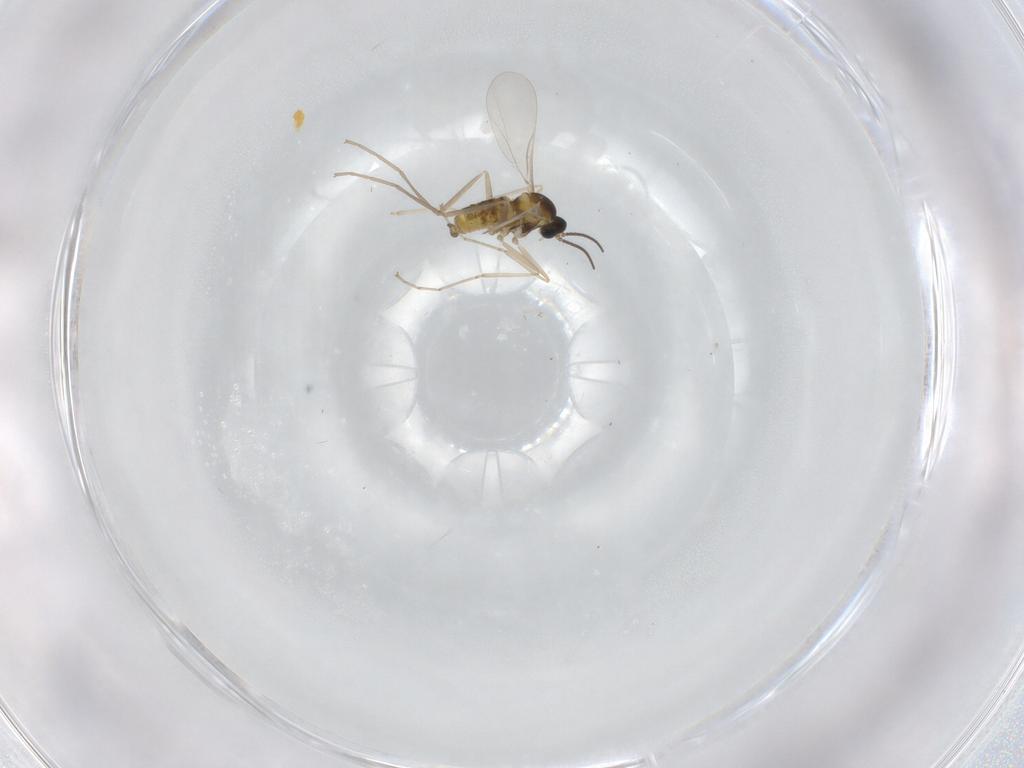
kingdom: Animalia
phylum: Arthropoda
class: Insecta
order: Diptera
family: Cecidomyiidae
